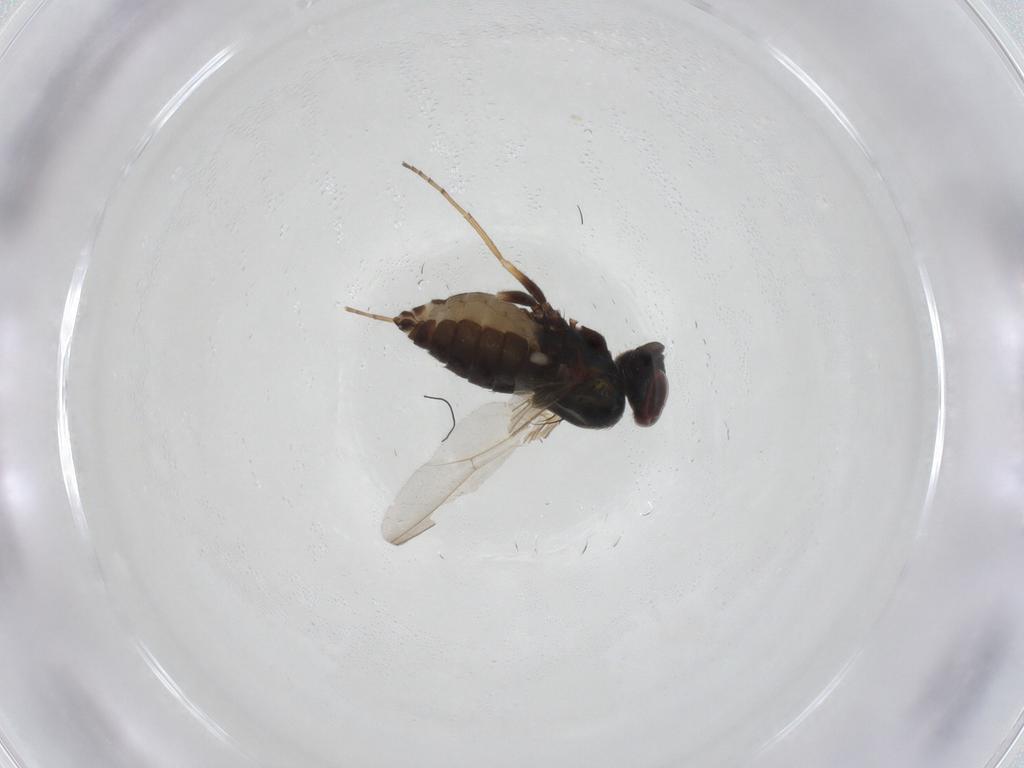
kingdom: Animalia
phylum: Arthropoda
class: Insecta
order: Diptera
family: Dolichopodidae
